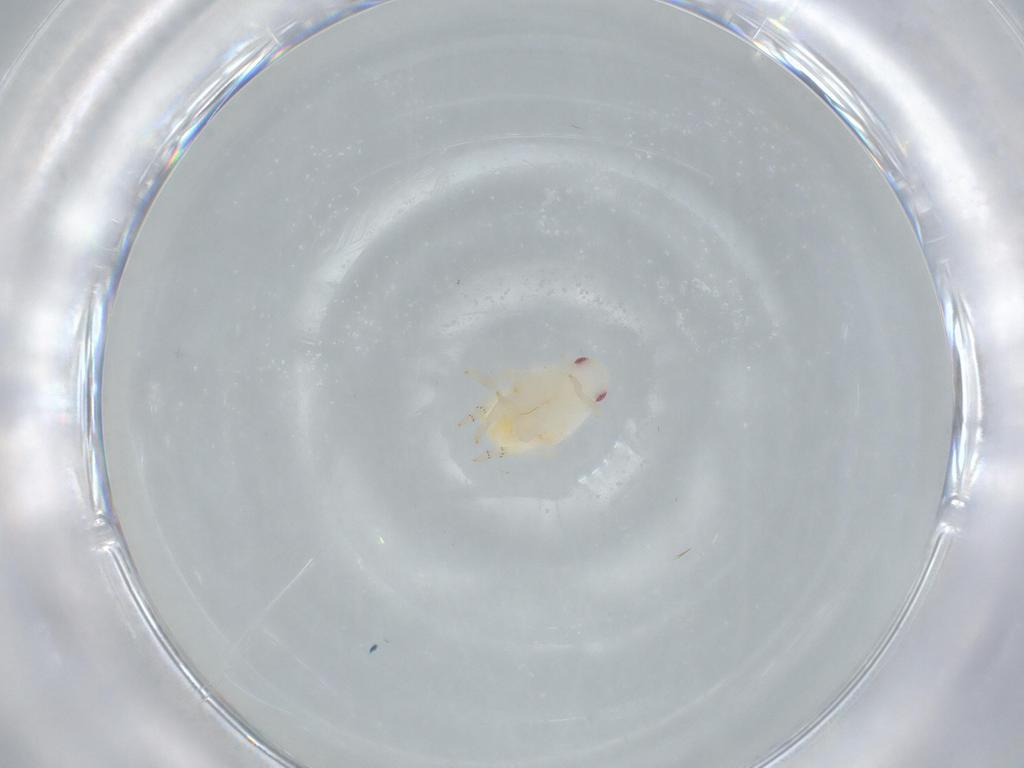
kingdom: Animalia
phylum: Arthropoda
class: Insecta
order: Hemiptera
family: Flatidae
